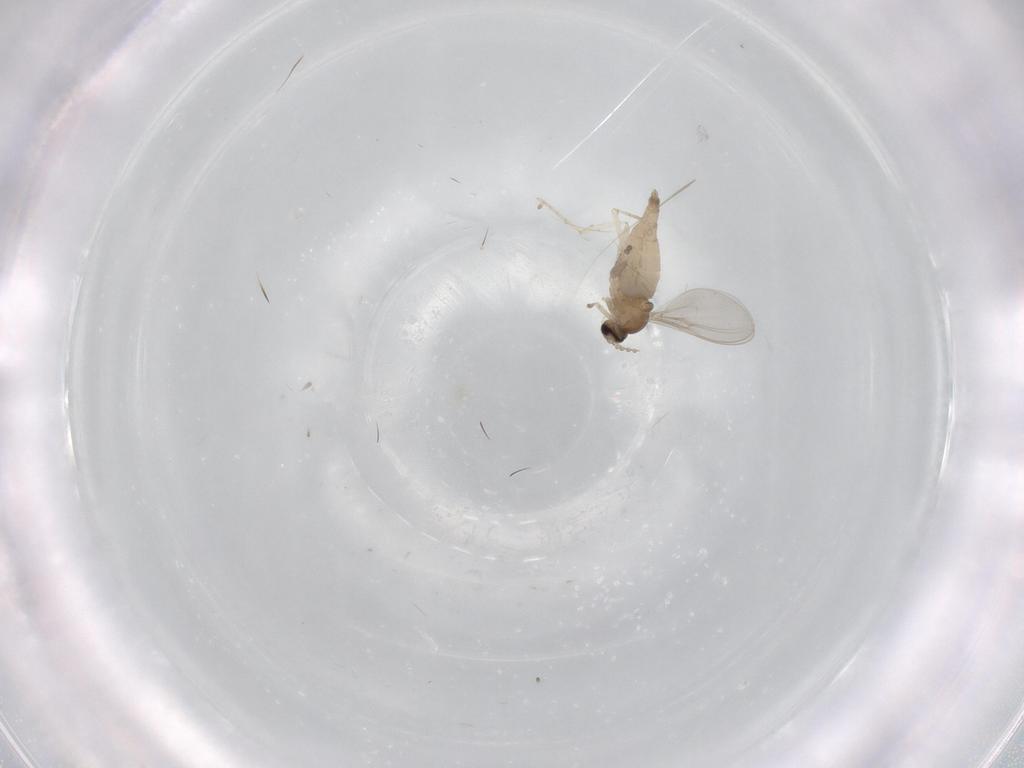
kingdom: Animalia
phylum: Arthropoda
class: Insecta
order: Diptera
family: Cecidomyiidae
